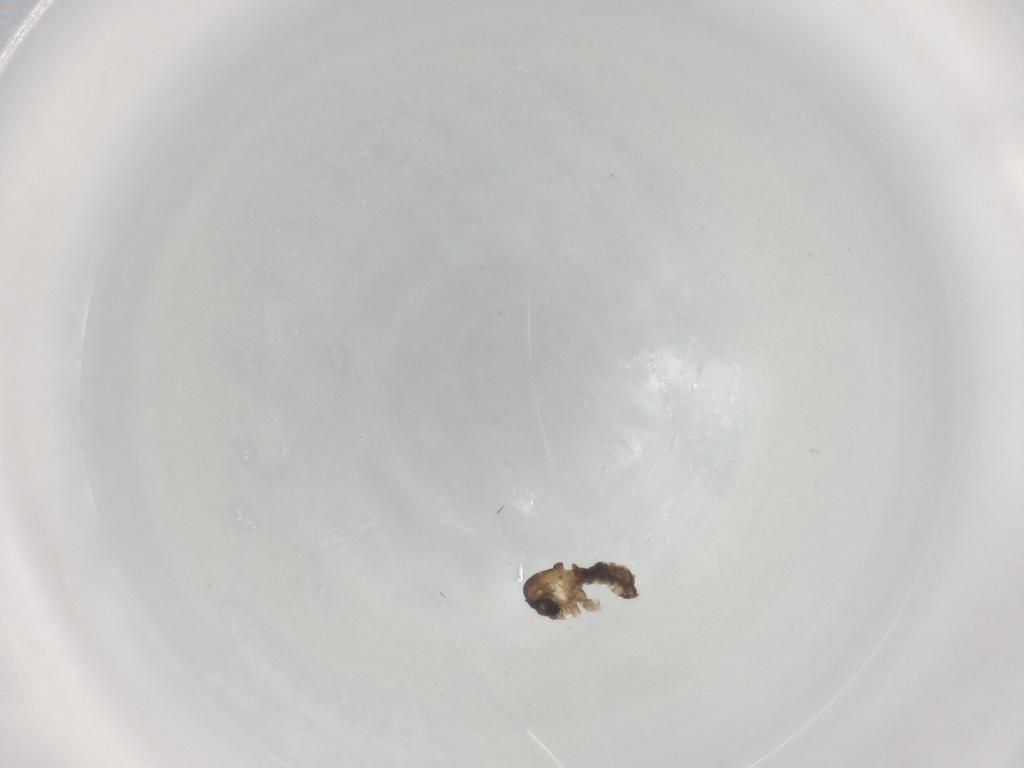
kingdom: Animalia
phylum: Arthropoda
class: Insecta
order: Diptera
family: Psychodidae
